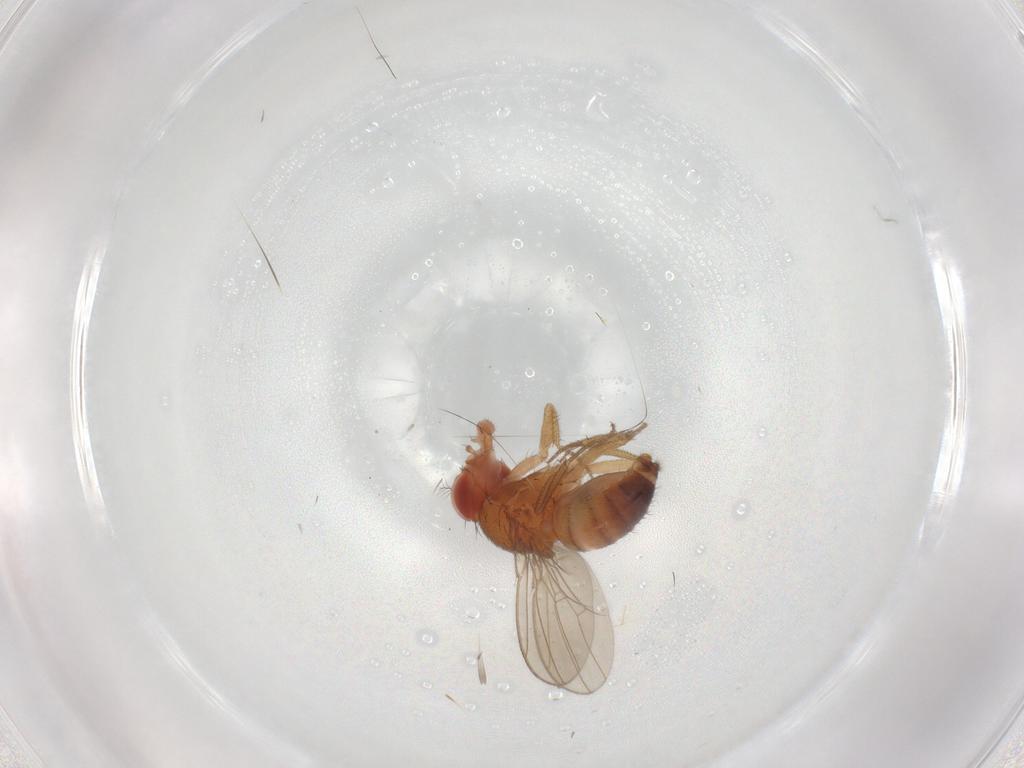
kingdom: Animalia
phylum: Arthropoda
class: Insecta
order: Diptera
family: Drosophilidae
